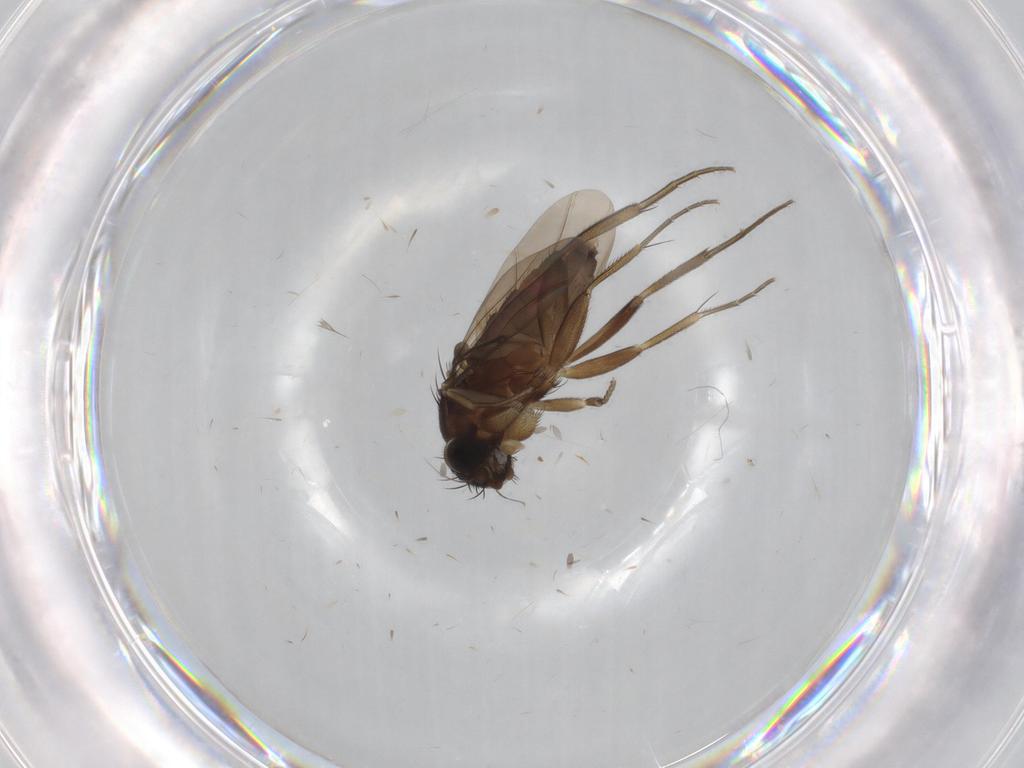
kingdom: Animalia
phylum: Arthropoda
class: Insecta
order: Diptera
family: Phoridae
